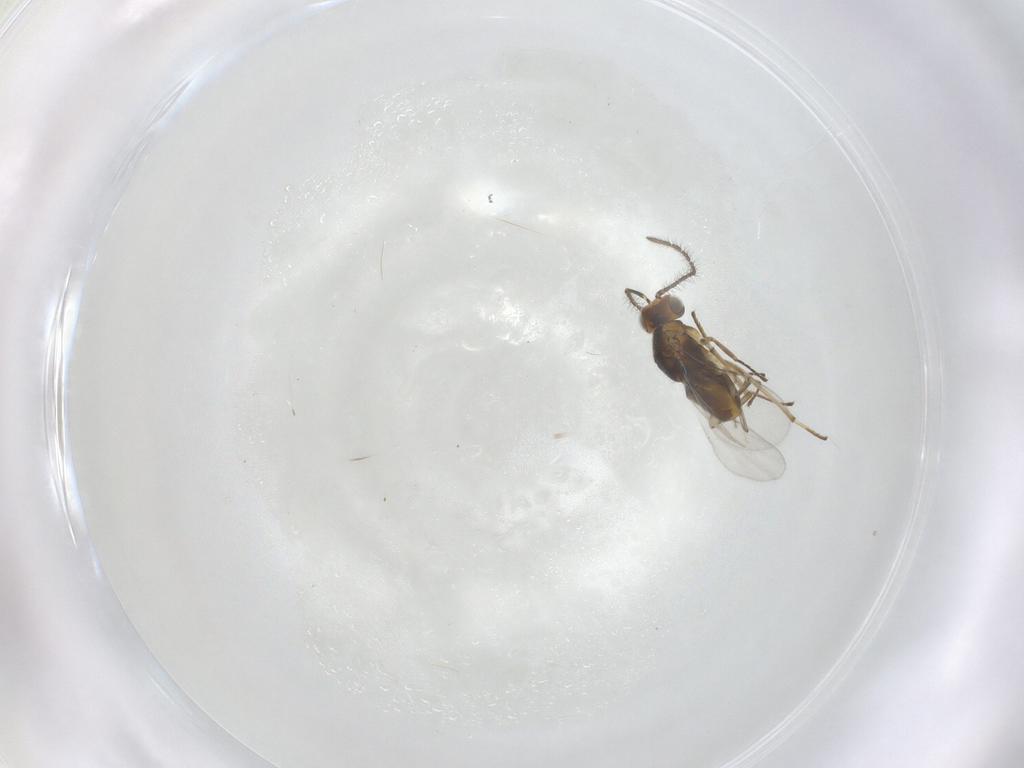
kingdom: Animalia
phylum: Arthropoda
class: Insecta
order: Hymenoptera
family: Encyrtidae
